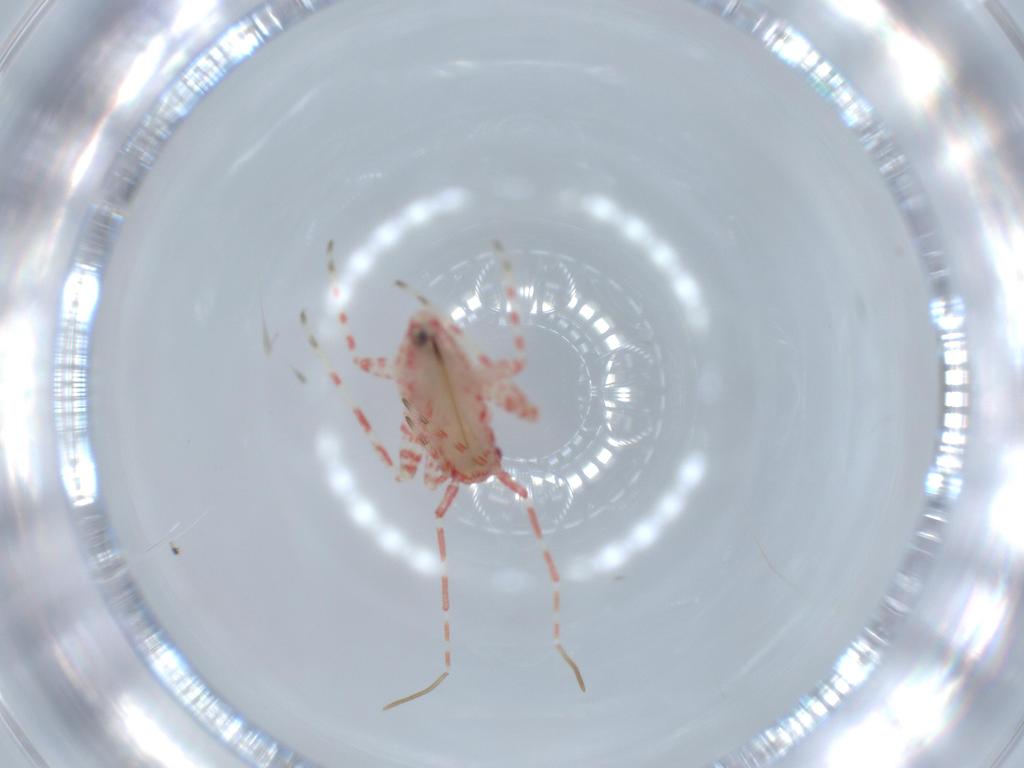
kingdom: Animalia
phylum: Arthropoda
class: Insecta
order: Hemiptera
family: Miridae
